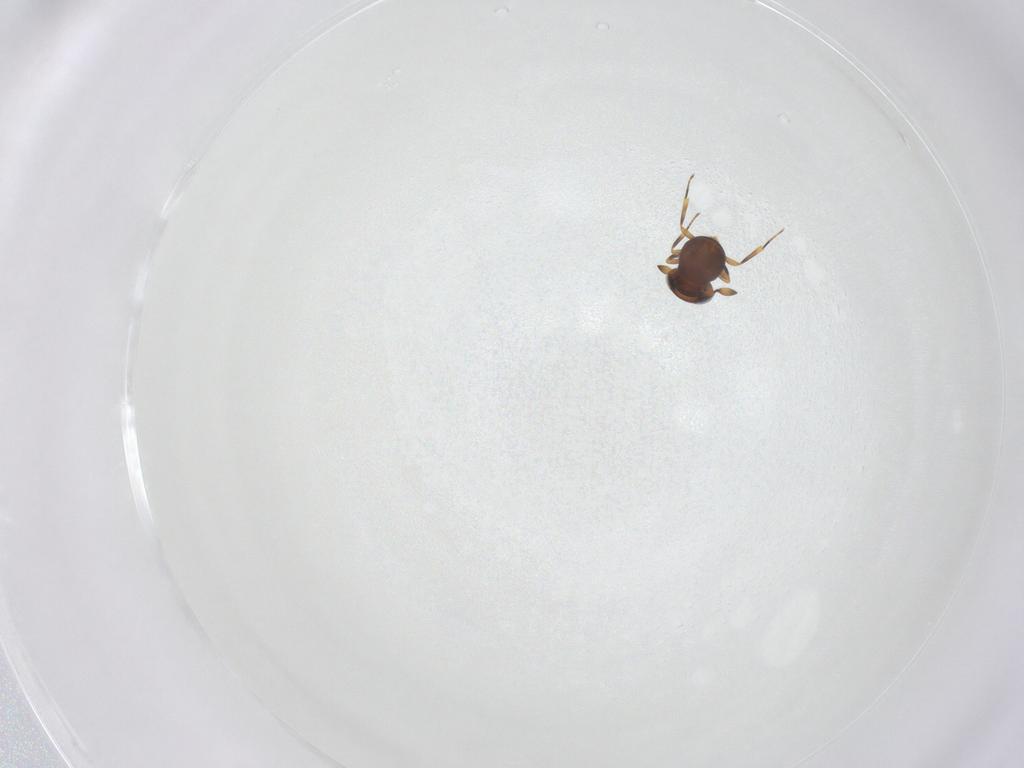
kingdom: Animalia
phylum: Arthropoda
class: Insecta
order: Hymenoptera
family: Scelionidae
